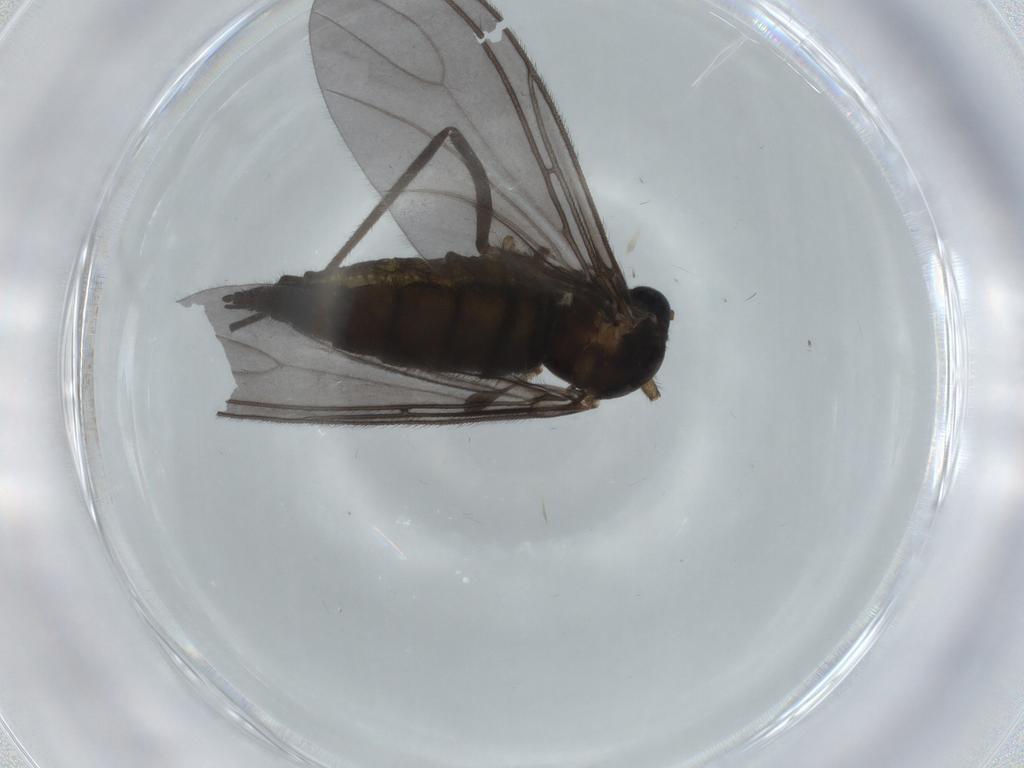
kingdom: Animalia
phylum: Arthropoda
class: Insecta
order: Diptera
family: Sciaridae
